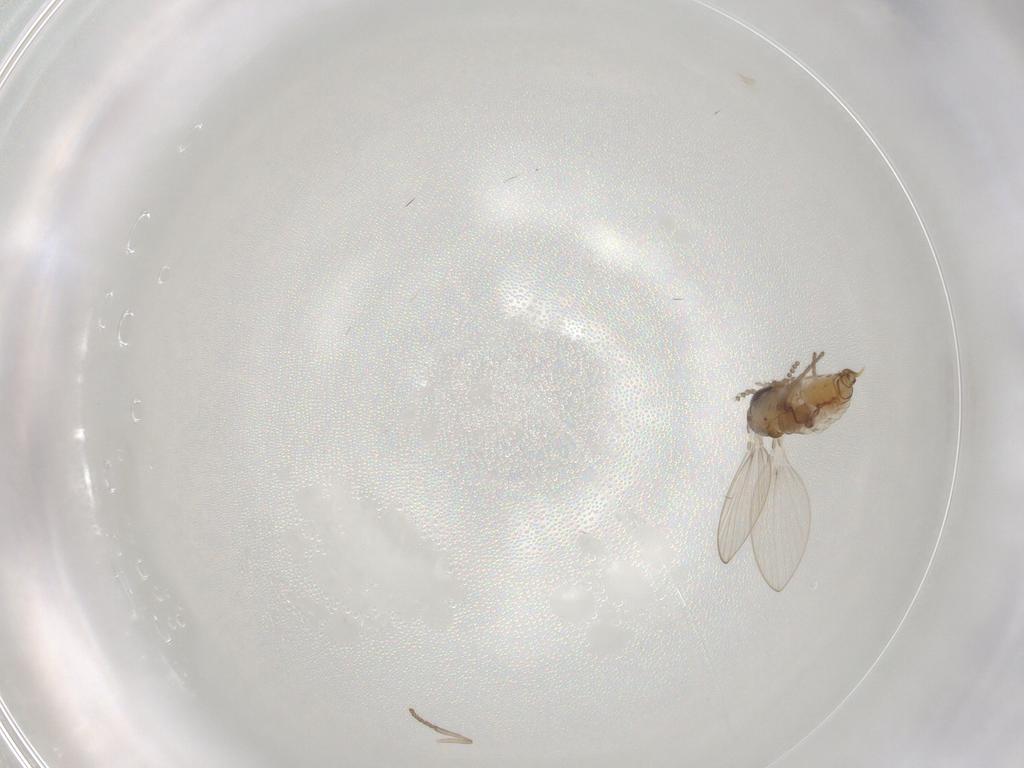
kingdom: Animalia
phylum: Arthropoda
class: Insecta
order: Diptera
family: Psychodidae
